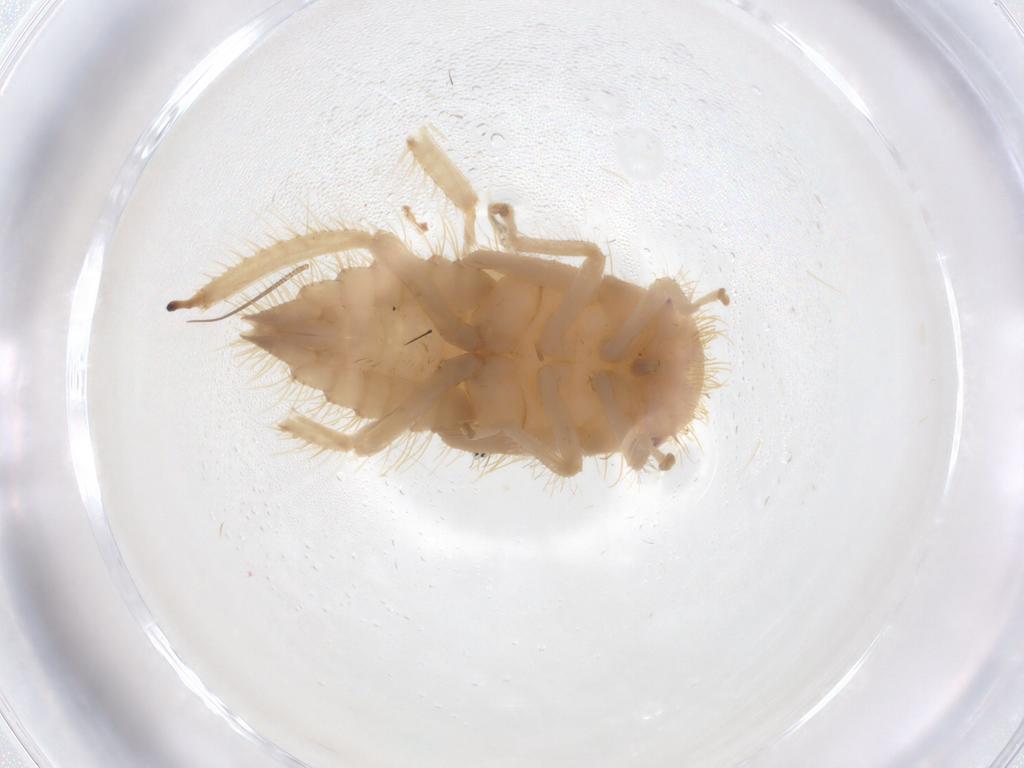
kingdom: Animalia
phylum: Arthropoda
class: Insecta
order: Hemiptera
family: Cicadellidae
